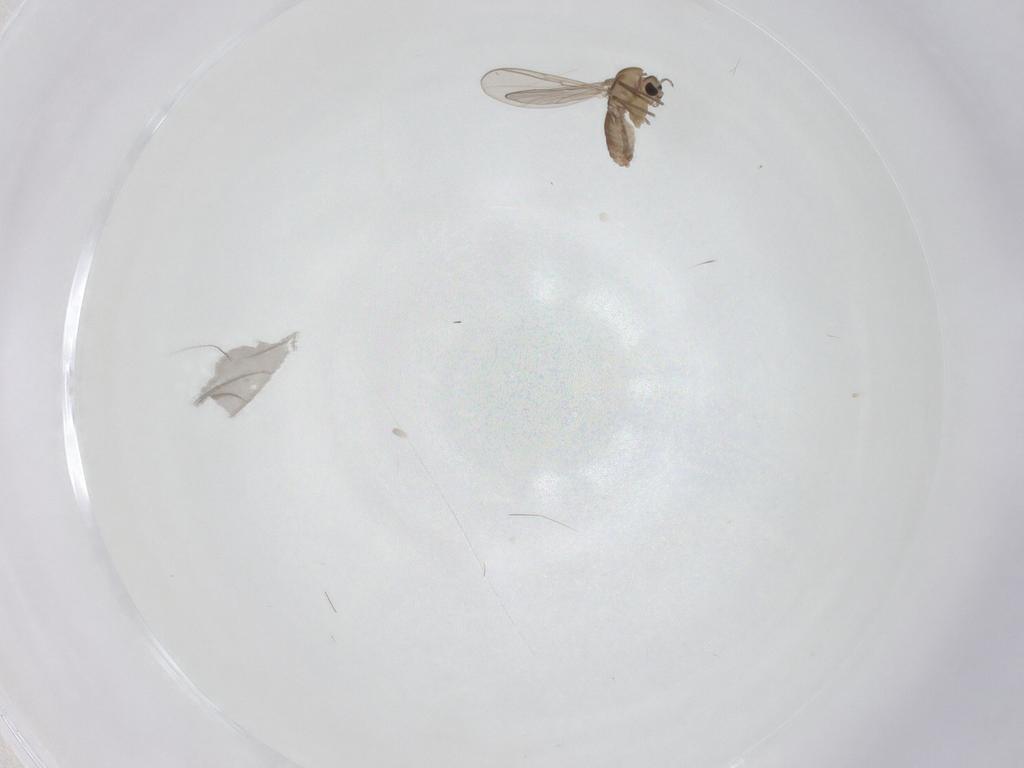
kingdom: Animalia
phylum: Arthropoda
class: Insecta
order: Diptera
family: Chironomidae
